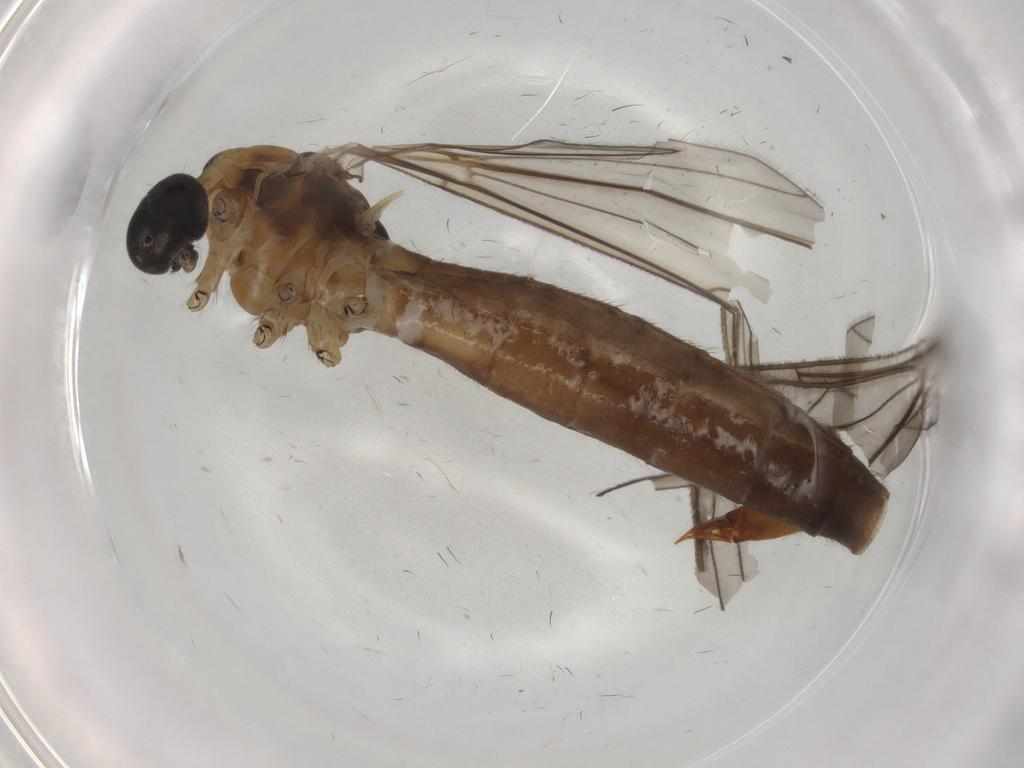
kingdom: Animalia
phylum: Arthropoda
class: Insecta
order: Diptera
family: Limoniidae
